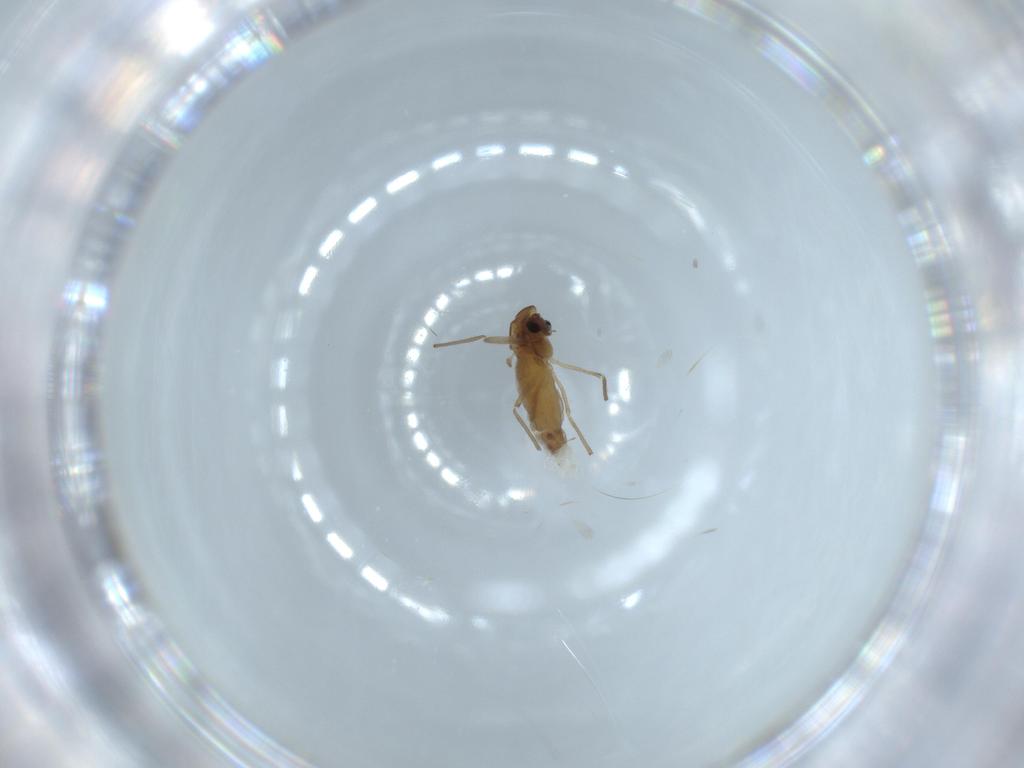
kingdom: Animalia
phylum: Arthropoda
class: Insecta
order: Diptera
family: Chironomidae
